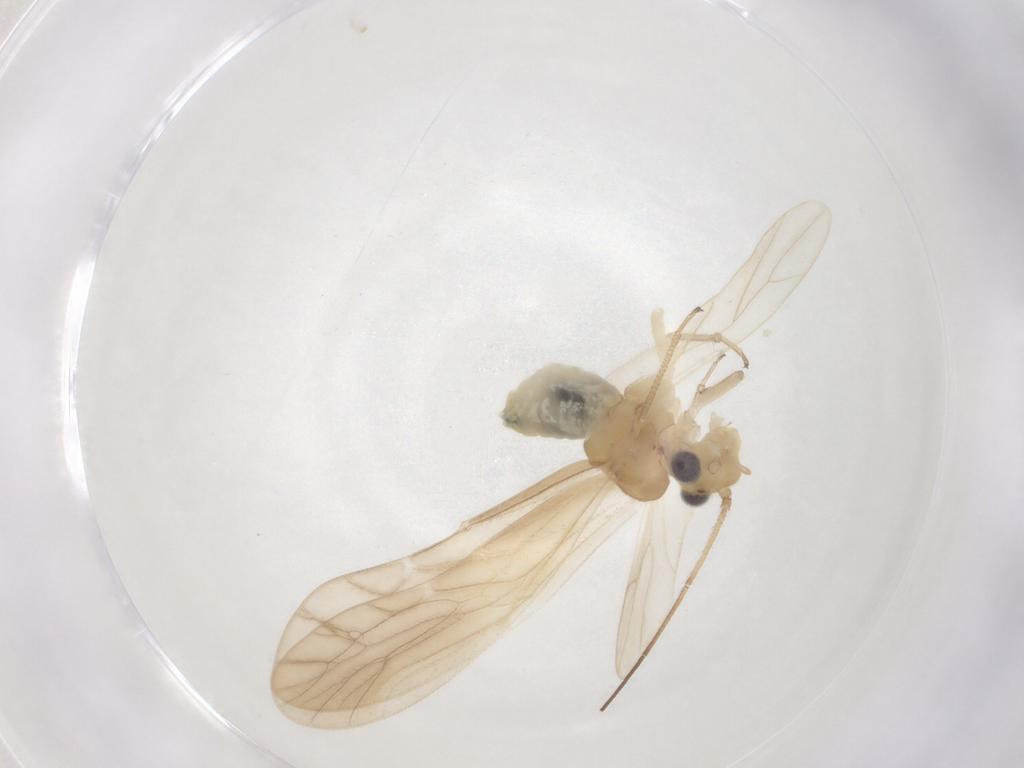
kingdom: Animalia
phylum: Arthropoda
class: Insecta
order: Psocodea
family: Caeciliusidae
